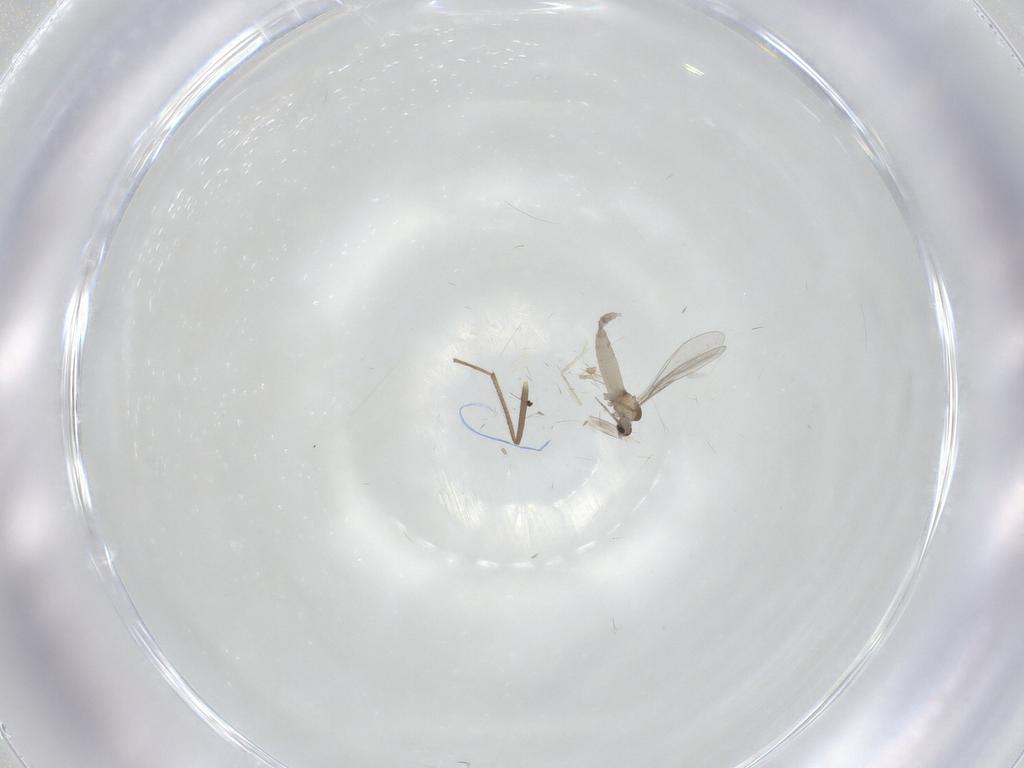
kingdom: Animalia
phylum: Arthropoda
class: Insecta
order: Diptera
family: Chironomidae
